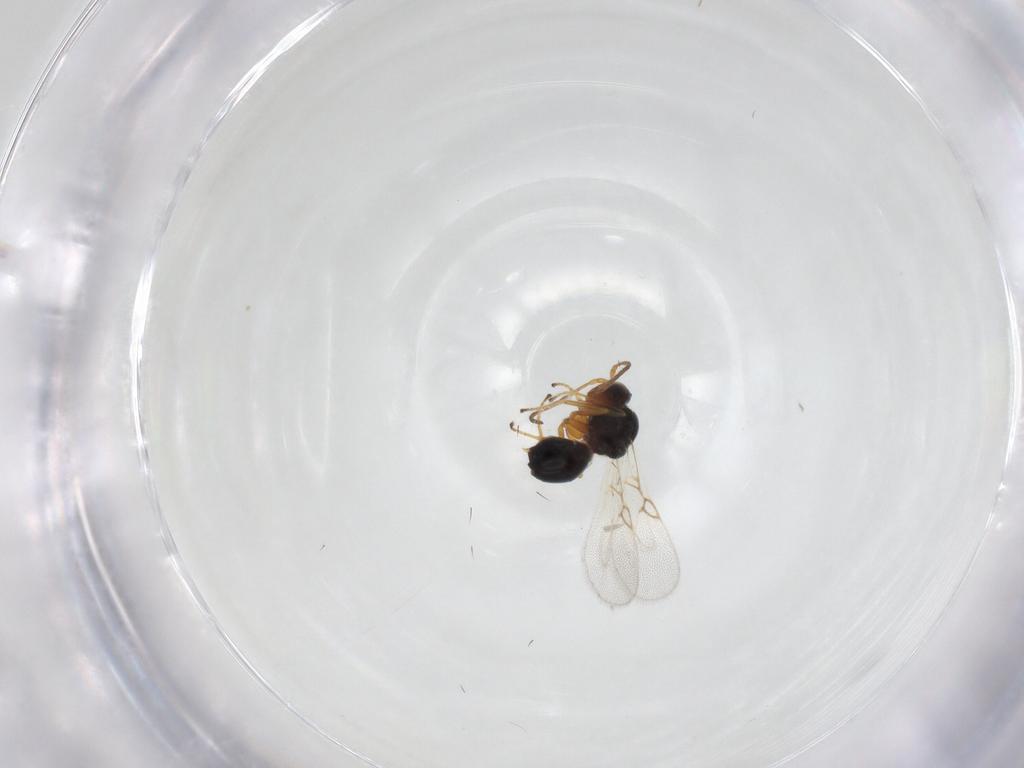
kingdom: Animalia
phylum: Arthropoda
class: Insecta
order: Hymenoptera
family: Figitidae
